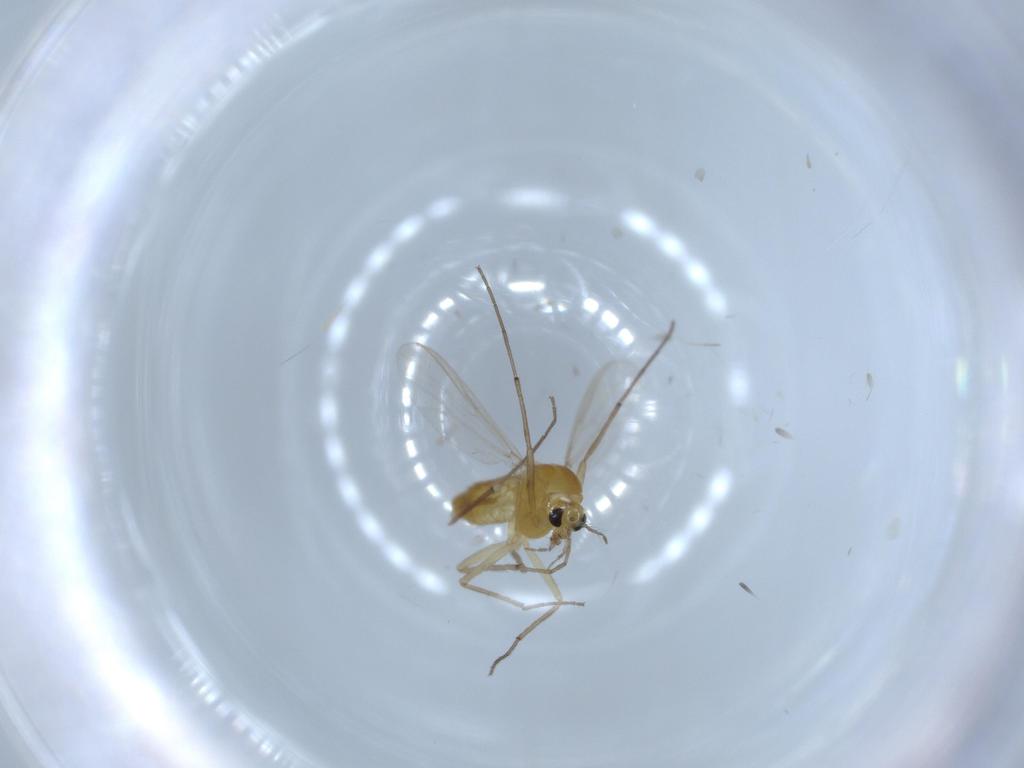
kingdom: Animalia
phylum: Arthropoda
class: Insecta
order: Diptera
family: Chironomidae
